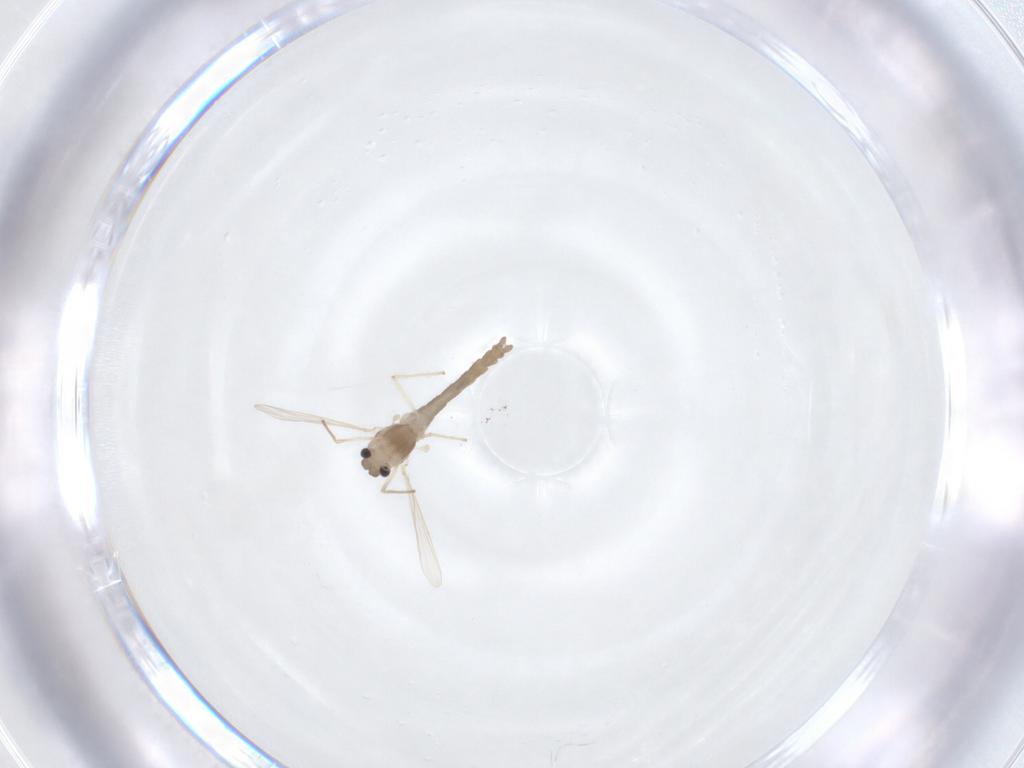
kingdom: Animalia
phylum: Arthropoda
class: Insecta
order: Diptera
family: Chironomidae
